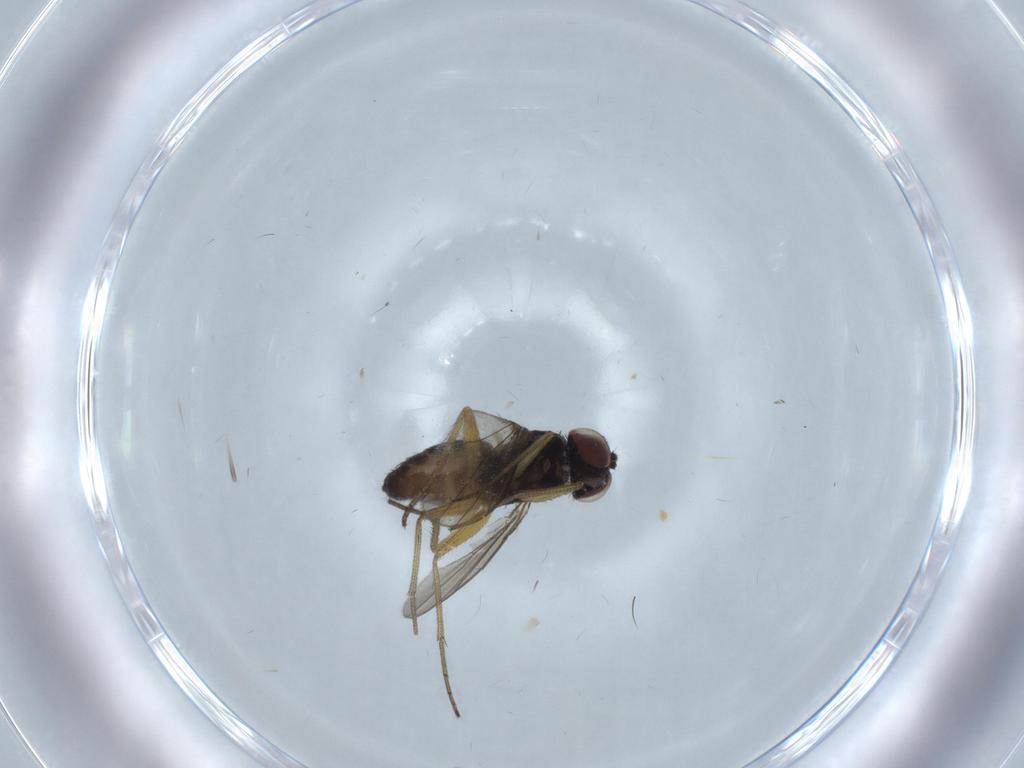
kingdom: Animalia
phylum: Arthropoda
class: Insecta
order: Diptera
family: Dolichopodidae
